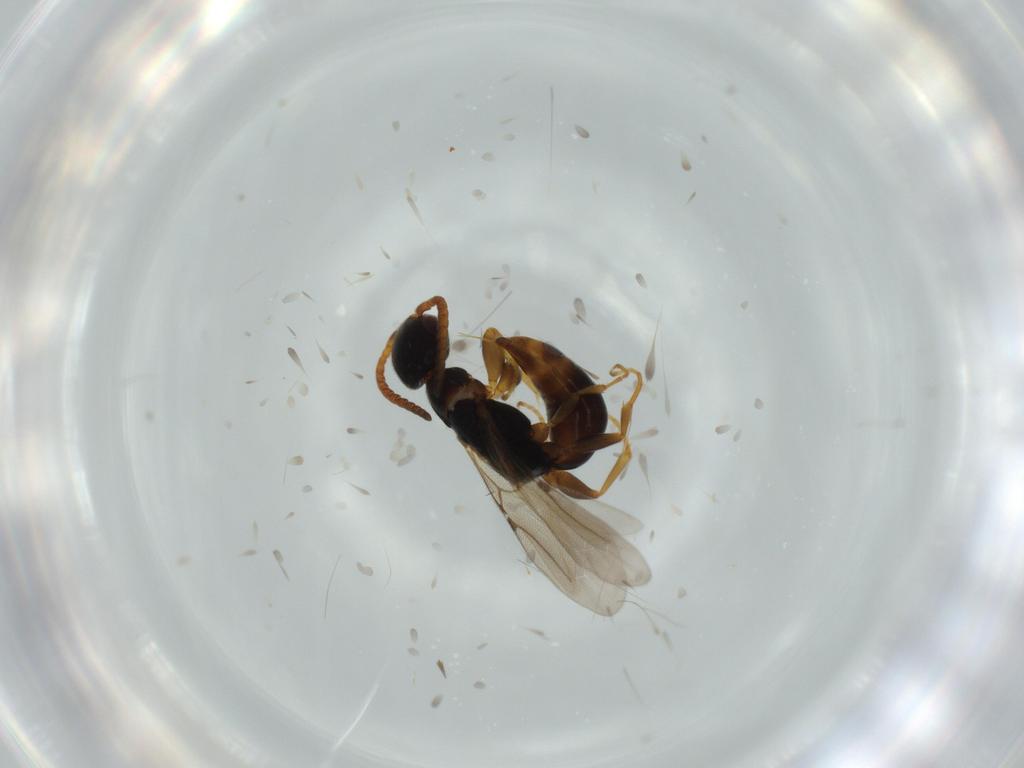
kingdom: Animalia
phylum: Arthropoda
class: Insecta
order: Hymenoptera
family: Bethylidae
